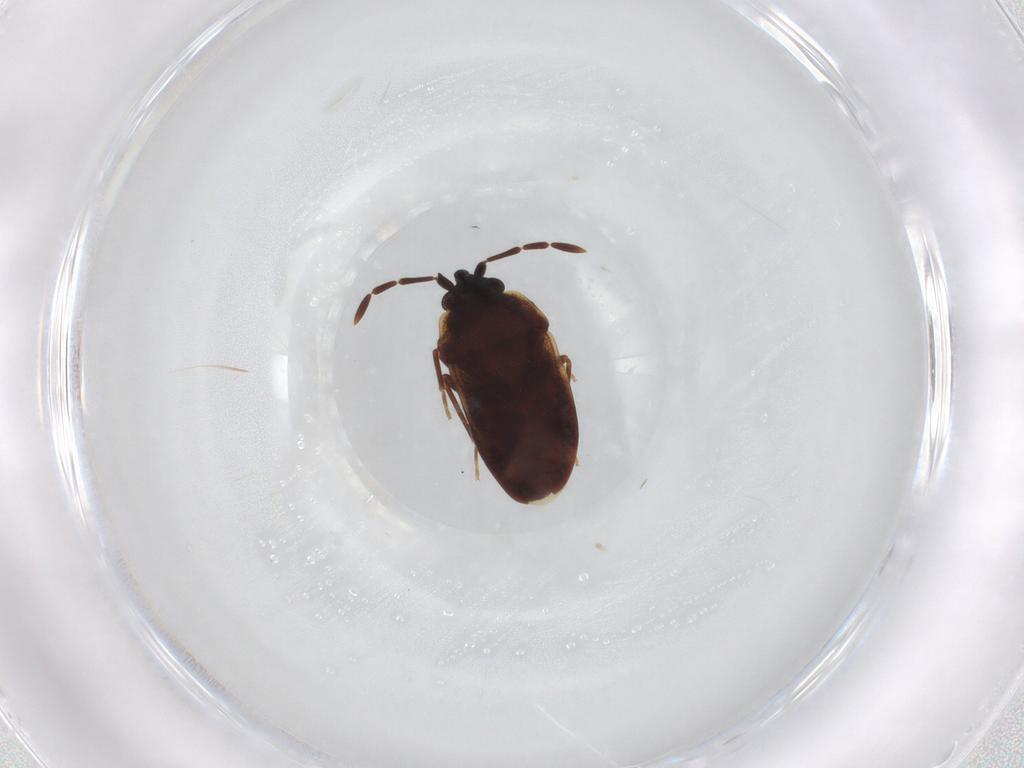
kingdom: Animalia
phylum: Arthropoda
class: Insecta
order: Hemiptera
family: Rhyparochromidae
